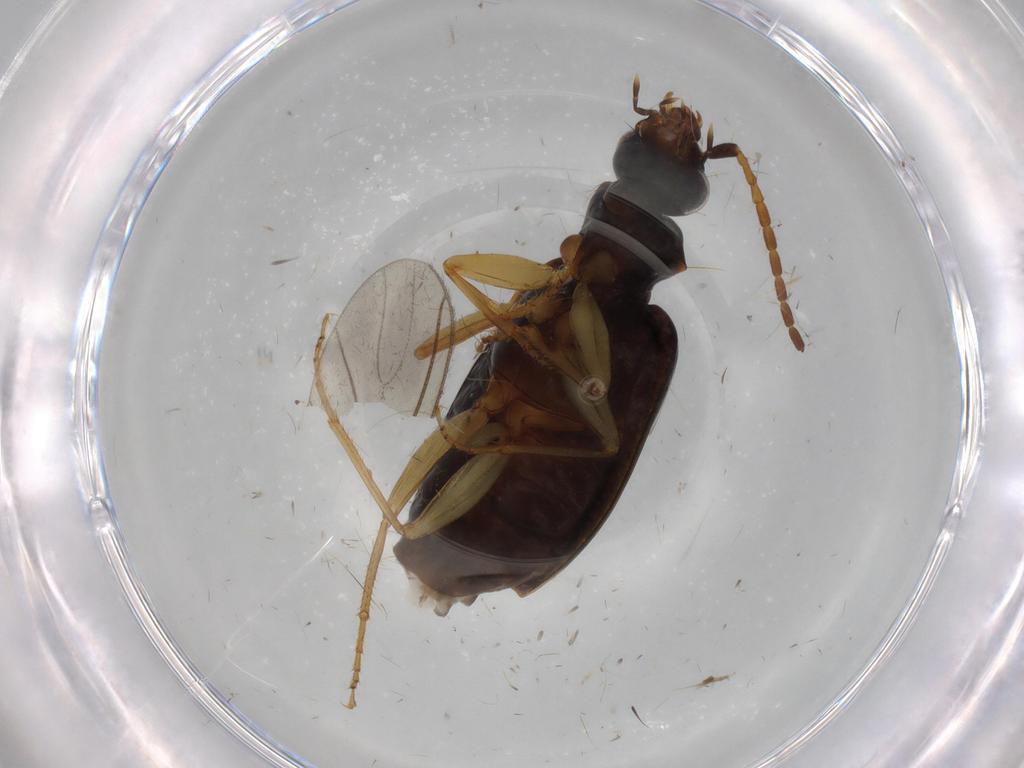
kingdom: Animalia
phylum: Arthropoda
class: Insecta
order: Coleoptera
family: Carabidae
